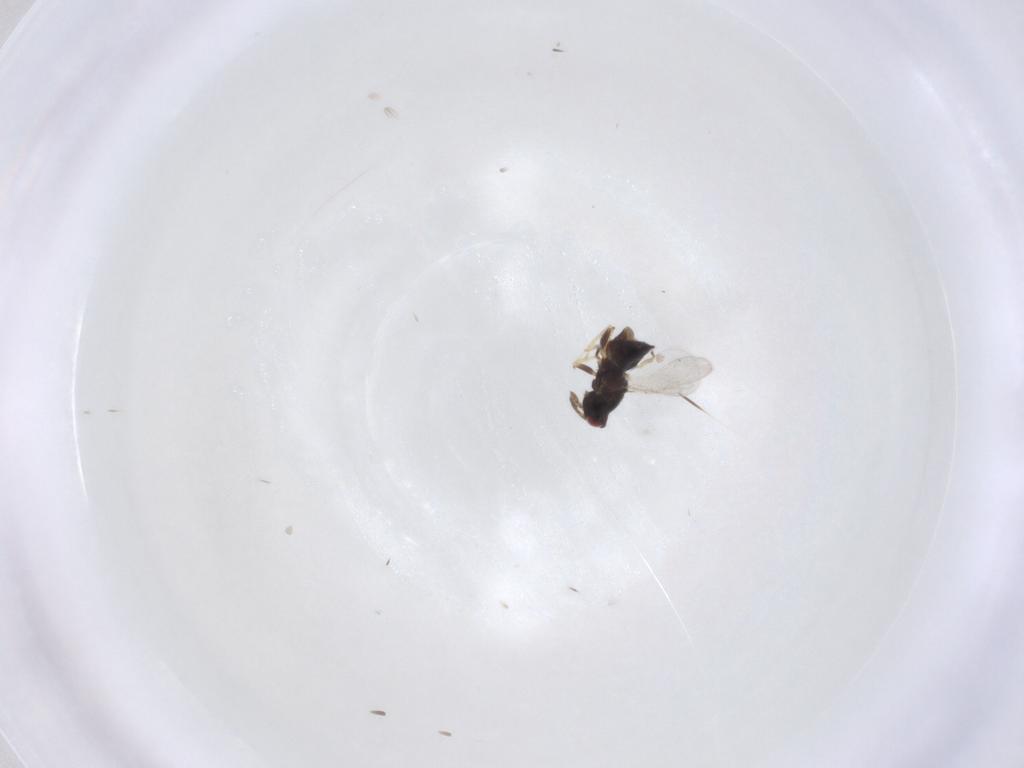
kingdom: Animalia
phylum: Arthropoda
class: Insecta
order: Hymenoptera
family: Eulophidae
